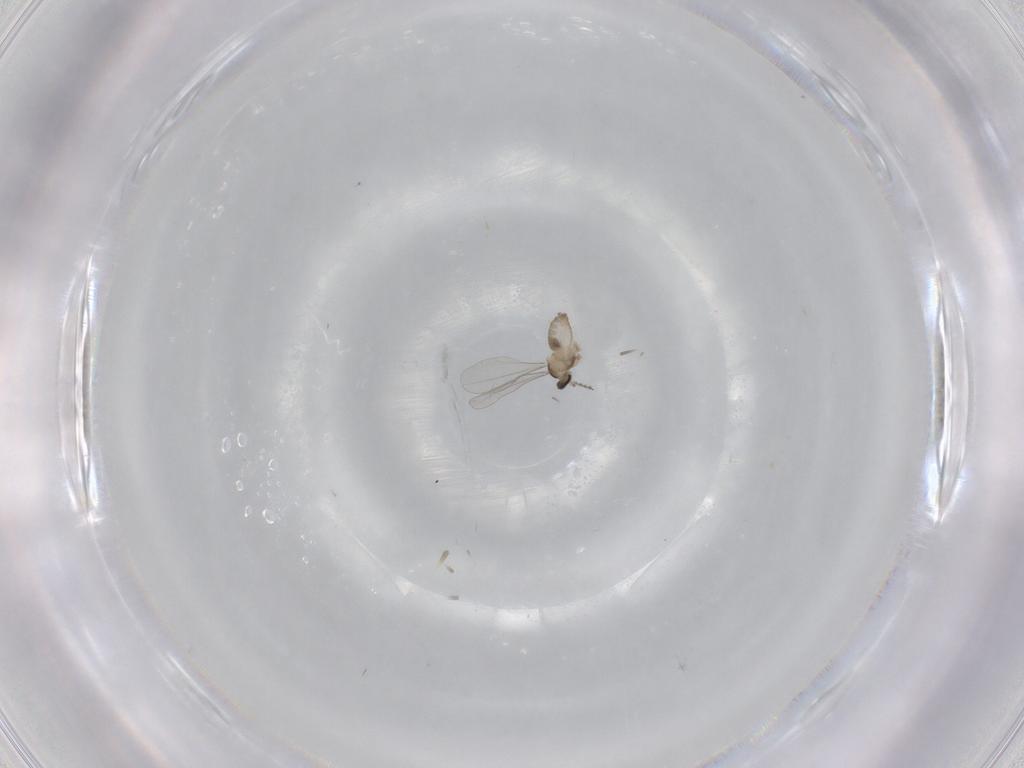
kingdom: Animalia
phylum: Arthropoda
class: Insecta
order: Diptera
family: Cecidomyiidae
